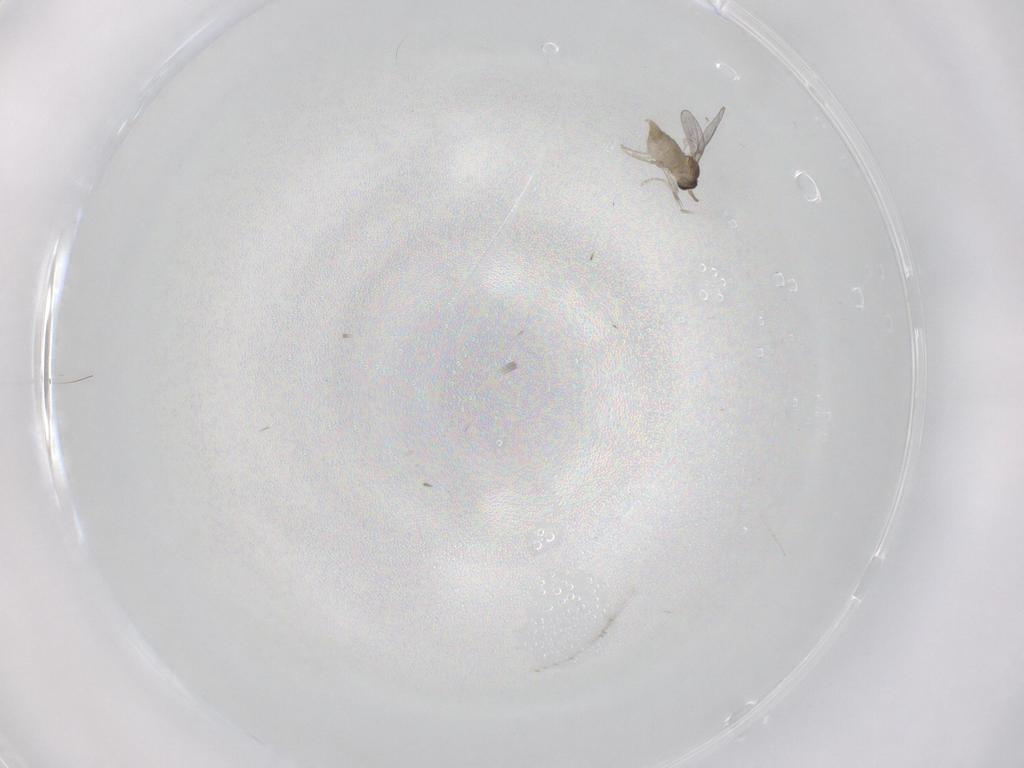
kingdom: Animalia
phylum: Arthropoda
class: Insecta
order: Diptera
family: Cecidomyiidae
